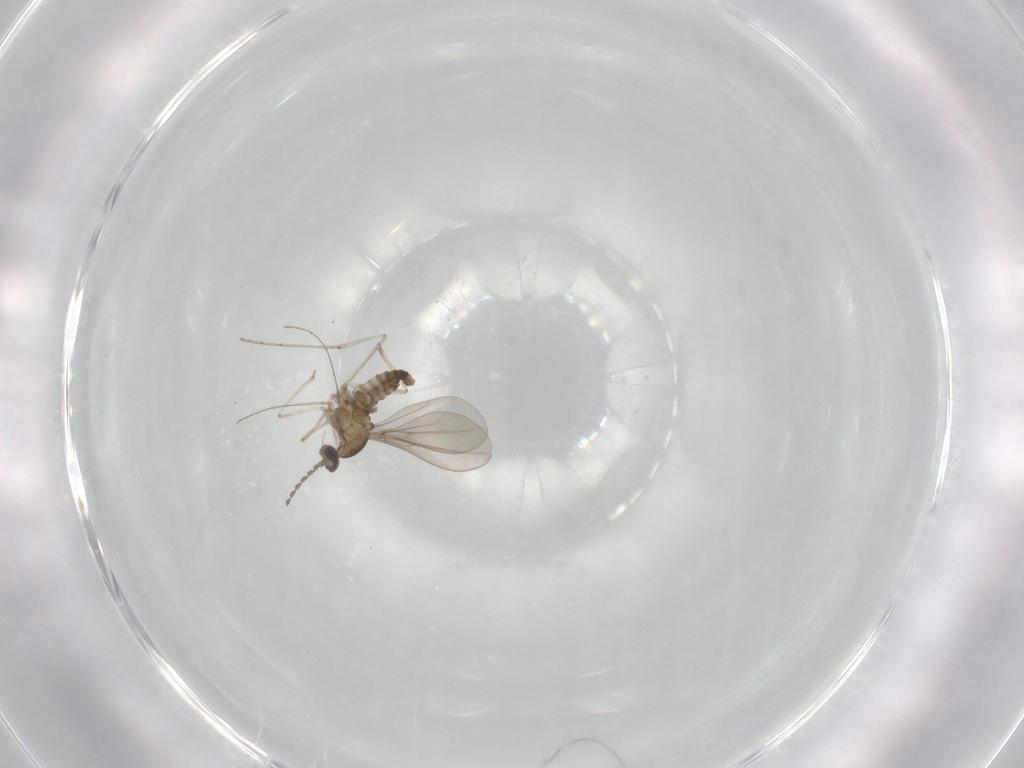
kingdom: Animalia
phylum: Arthropoda
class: Insecta
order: Diptera
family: Cecidomyiidae
